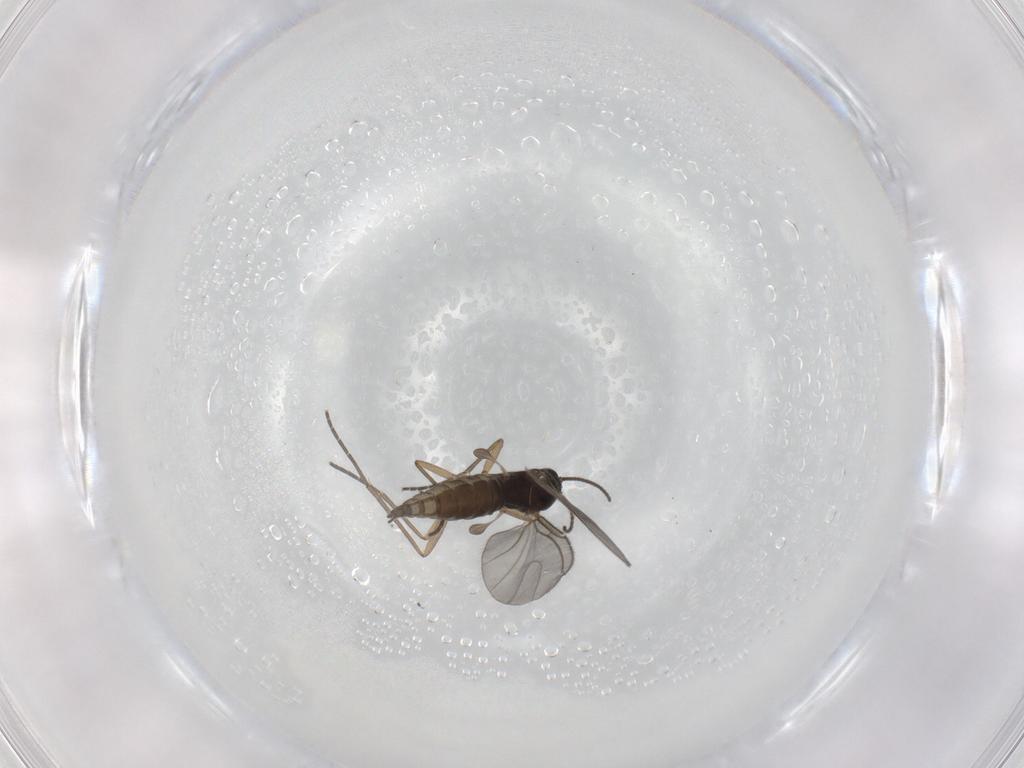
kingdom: Animalia
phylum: Arthropoda
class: Insecta
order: Diptera
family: Sciaridae
